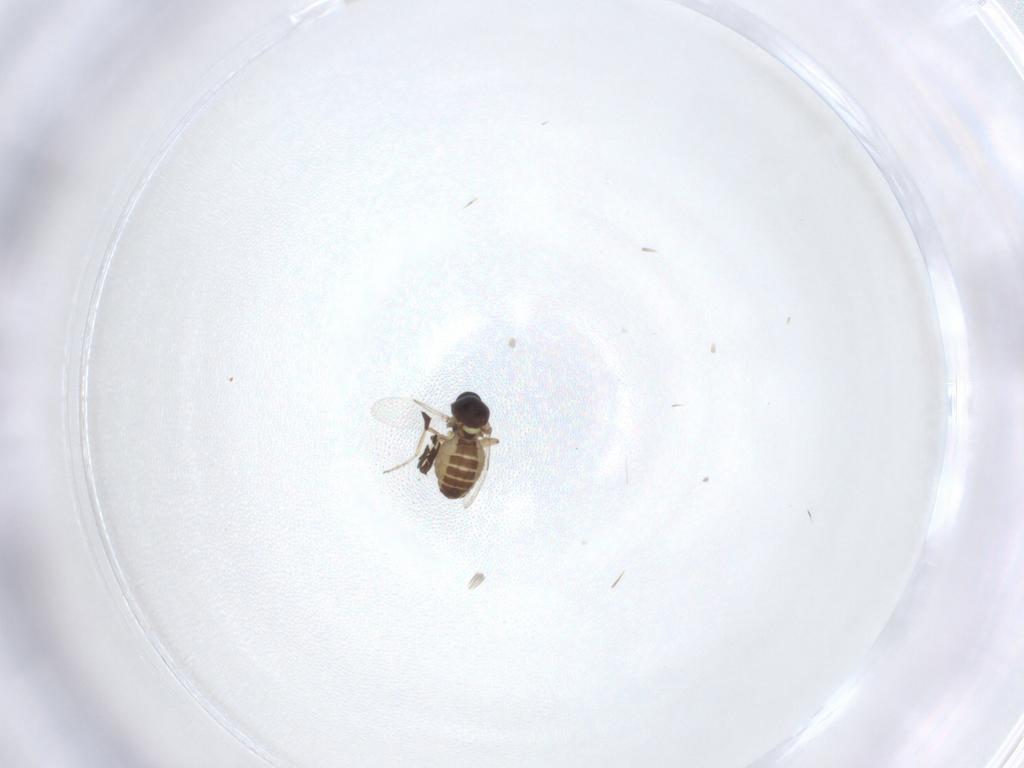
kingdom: Animalia
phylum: Arthropoda
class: Insecta
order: Diptera
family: Ceratopogonidae
